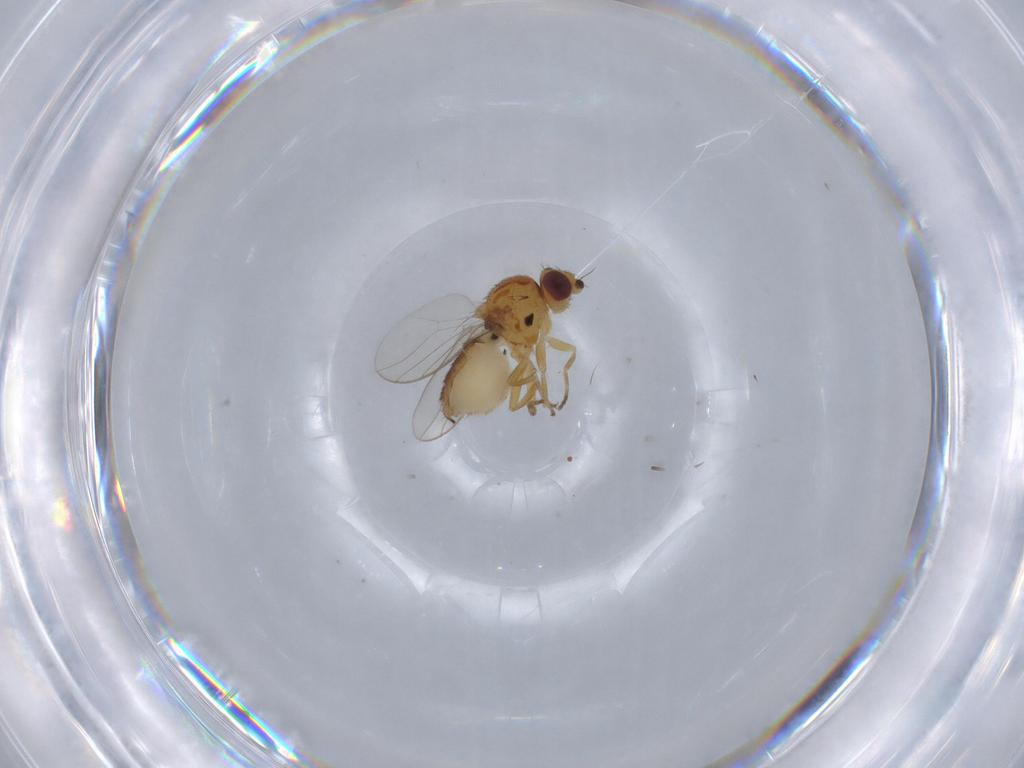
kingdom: Animalia
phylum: Arthropoda
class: Insecta
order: Diptera
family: Chloropidae
